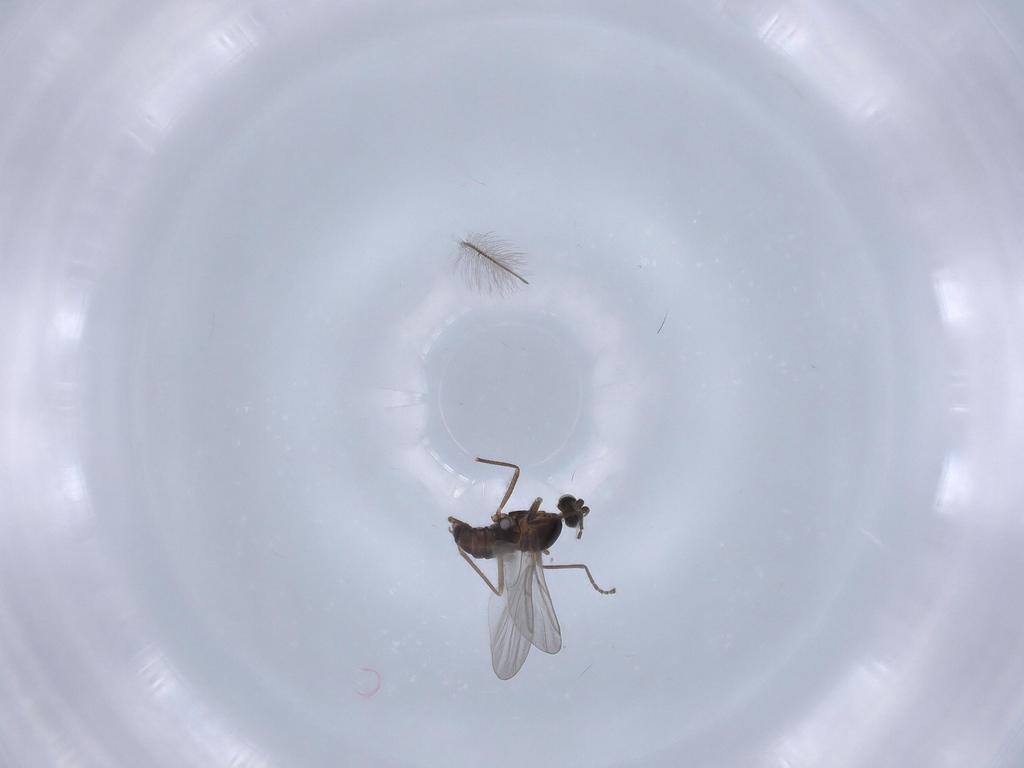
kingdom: Animalia
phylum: Arthropoda
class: Insecta
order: Diptera
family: Cecidomyiidae
